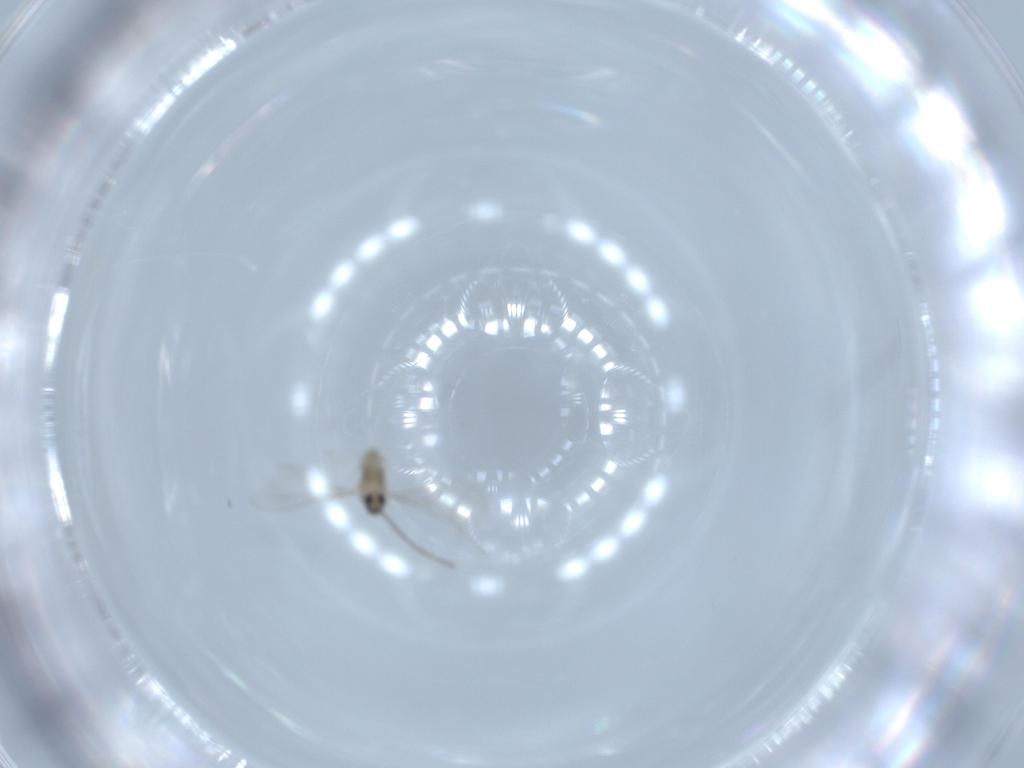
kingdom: Animalia
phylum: Arthropoda
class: Insecta
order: Diptera
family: Cecidomyiidae
